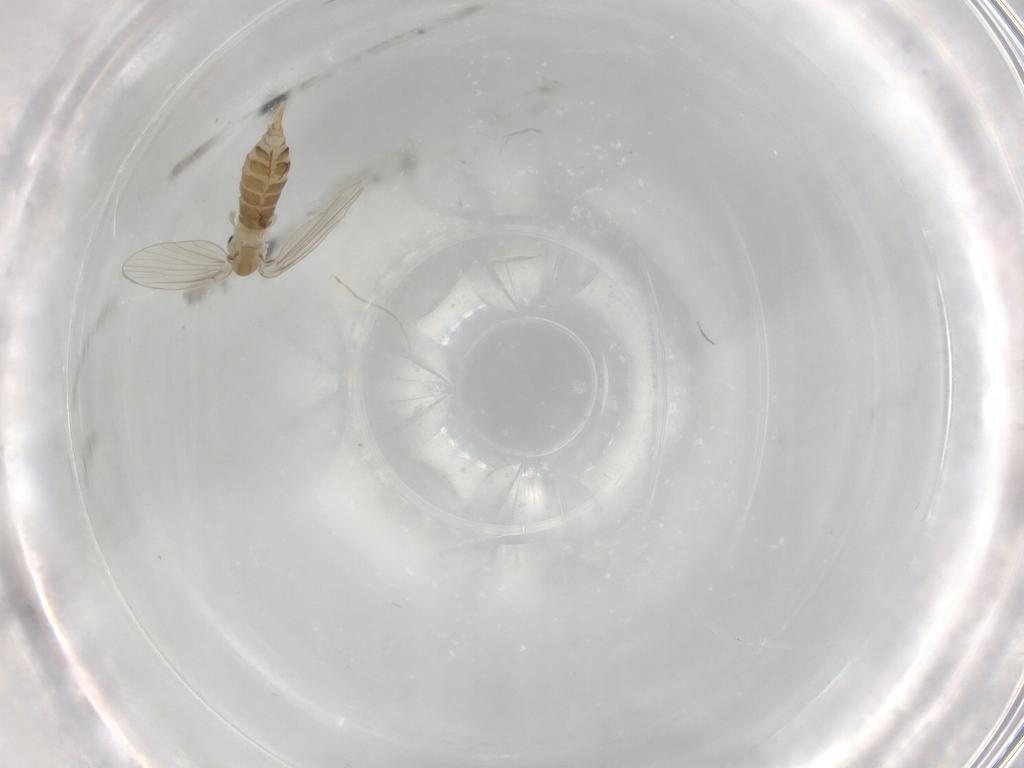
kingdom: Animalia
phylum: Arthropoda
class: Insecta
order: Diptera
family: Psychodidae
